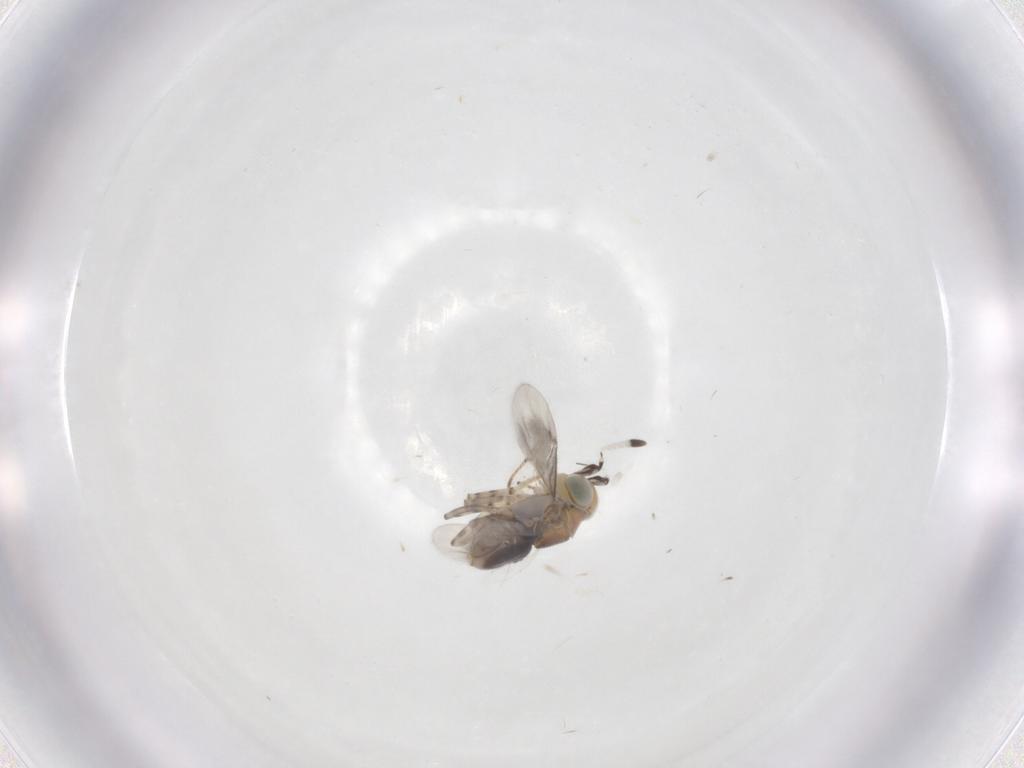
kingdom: Animalia
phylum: Arthropoda
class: Insecta
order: Hymenoptera
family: Encyrtidae
